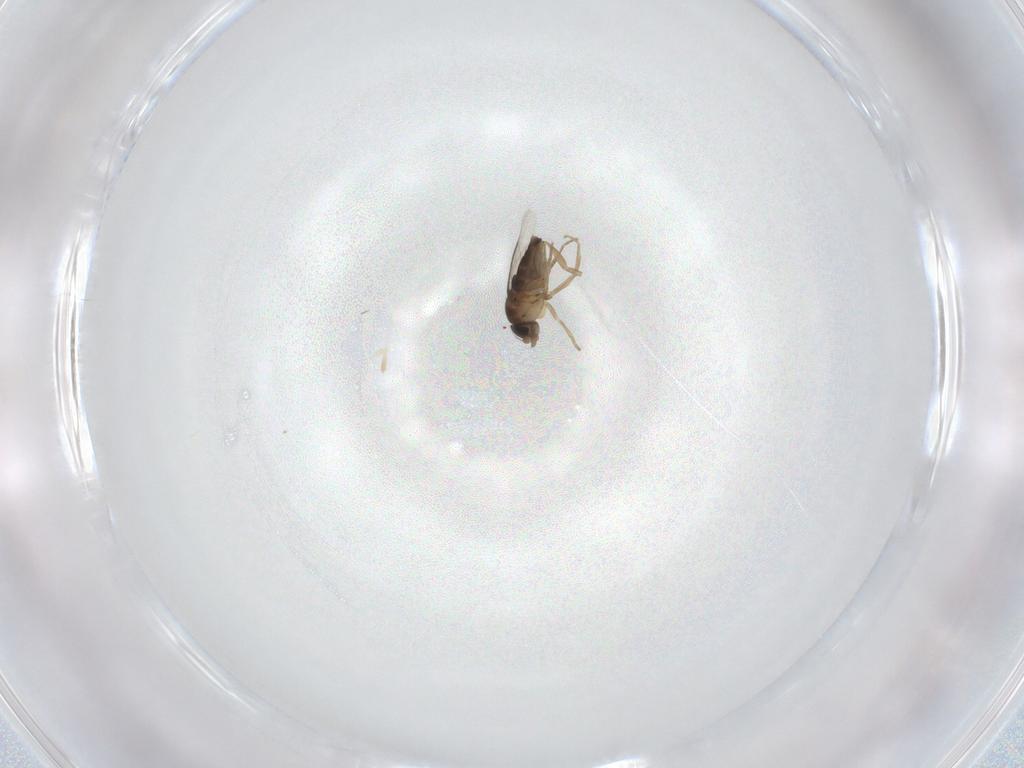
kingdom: Animalia
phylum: Arthropoda
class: Insecta
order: Diptera
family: Phoridae
